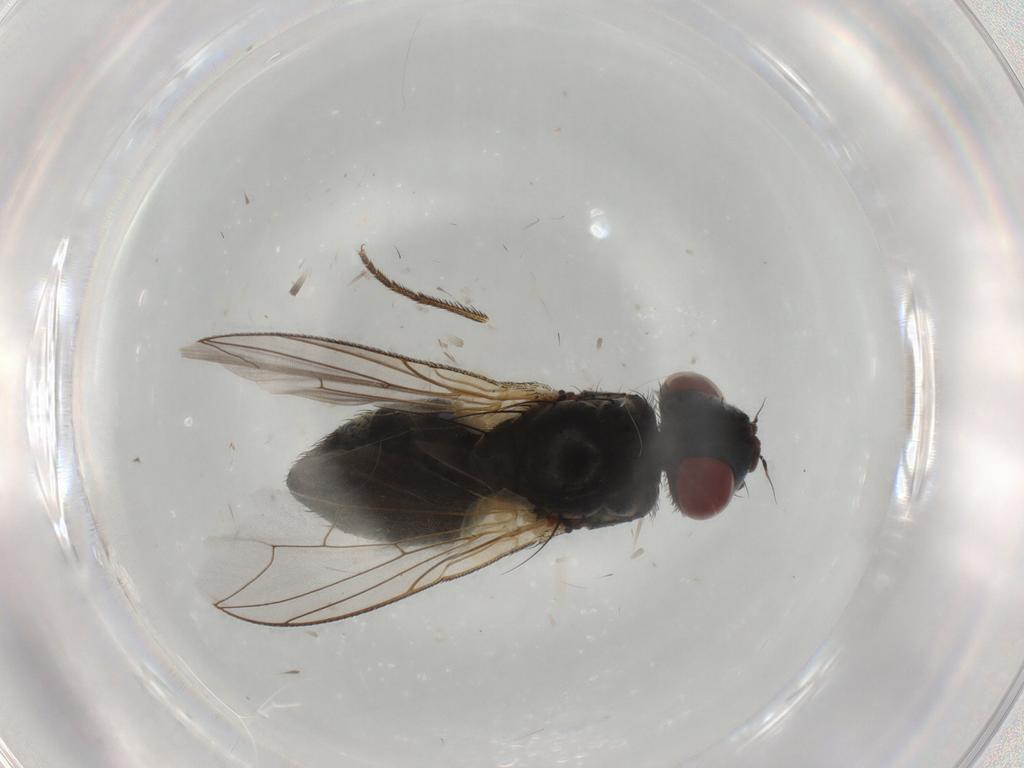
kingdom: Animalia
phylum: Arthropoda
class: Insecta
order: Diptera
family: Sarcophagidae
